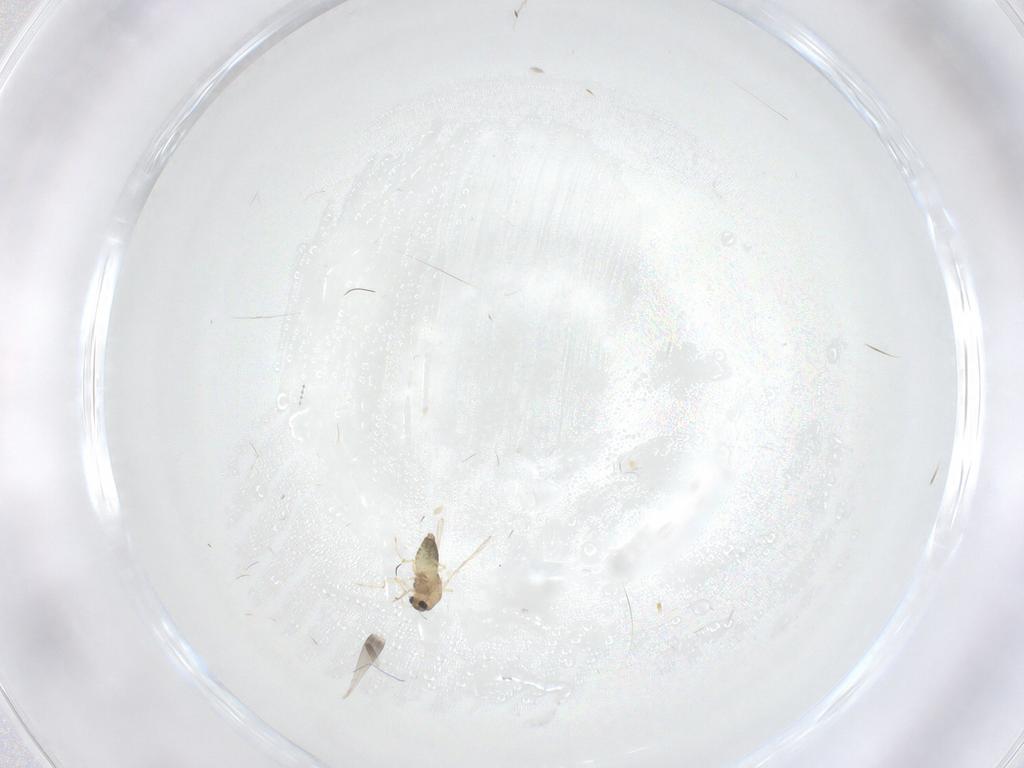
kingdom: Animalia
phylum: Arthropoda
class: Insecta
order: Diptera
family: Chironomidae
